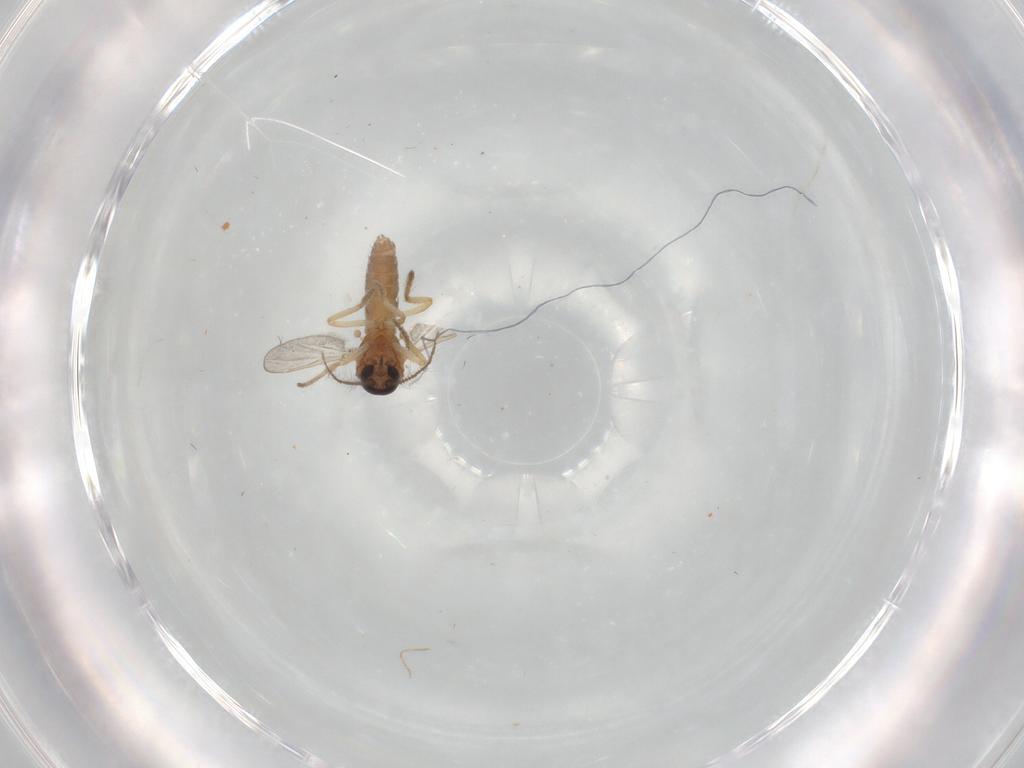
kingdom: Animalia
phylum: Arthropoda
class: Insecta
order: Diptera
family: Ceratopogonidae
